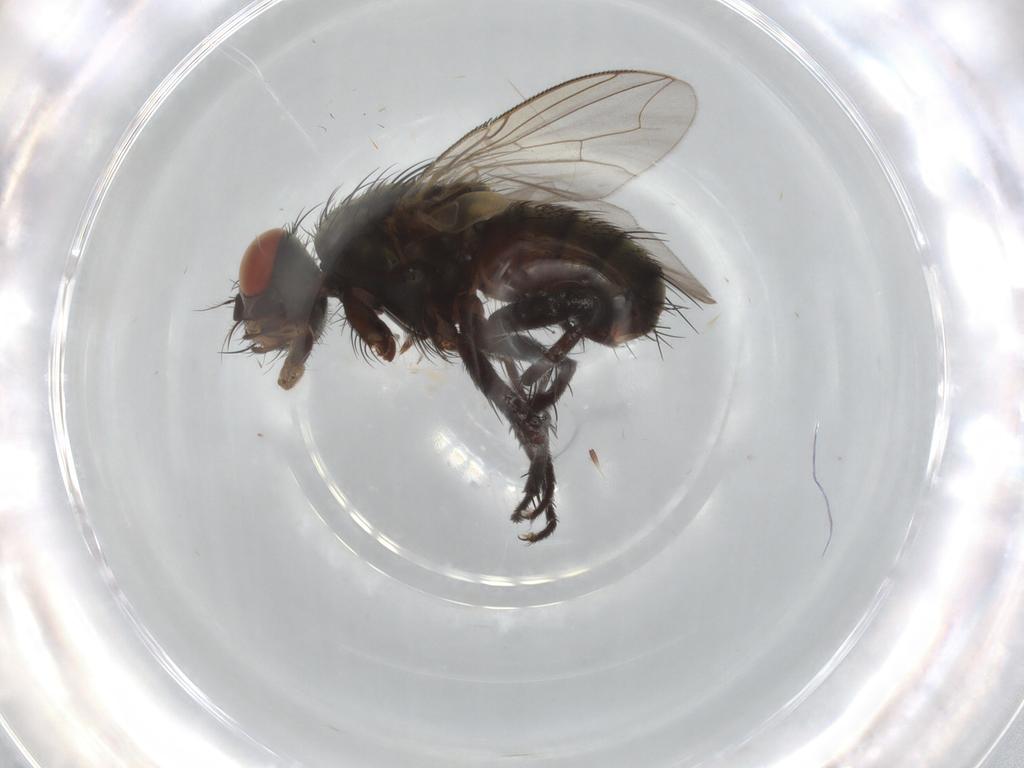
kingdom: Animalia
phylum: Arthropoda
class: Insecta
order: Diptera
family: Sarcophagidae
